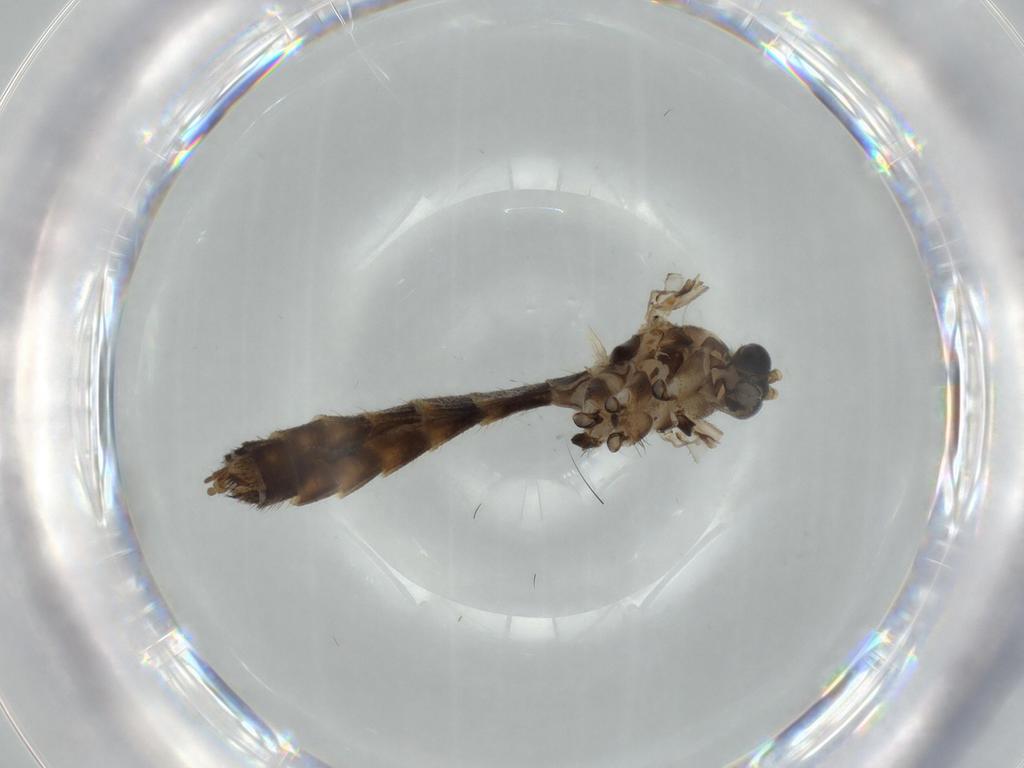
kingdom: Animalia
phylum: Arthropoda
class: Insecta
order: Diptera
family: Mycetophilidae
